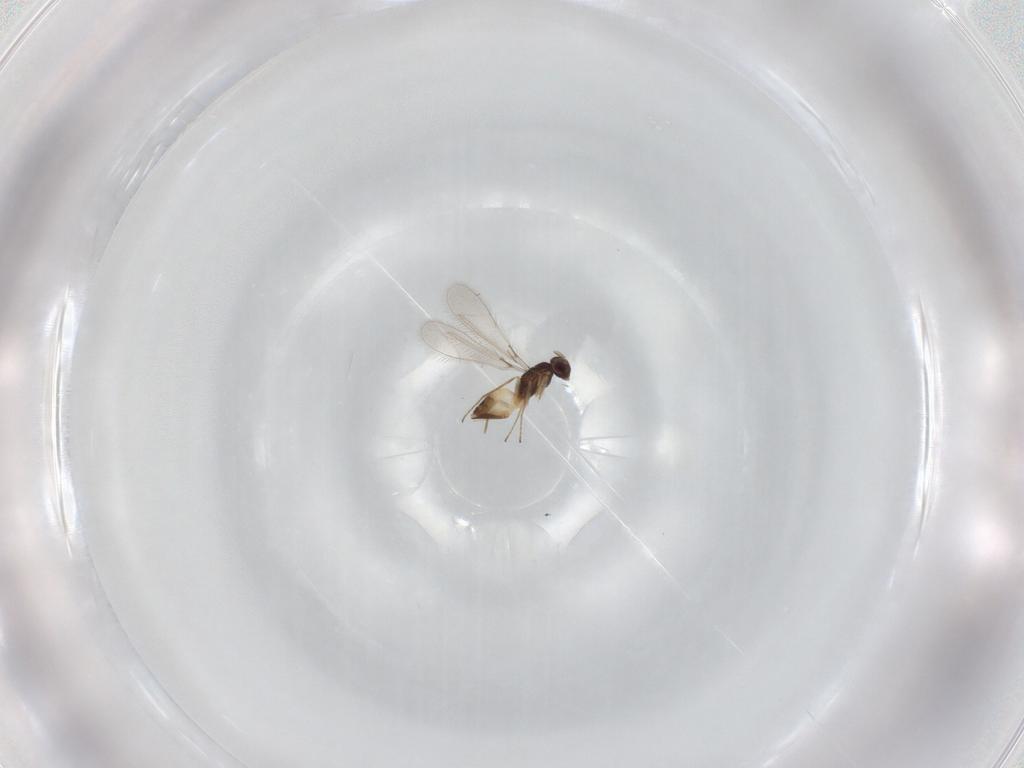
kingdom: Animalia
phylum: Arthropoda
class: Insecta
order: Hymenoptera
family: Mymaridae
